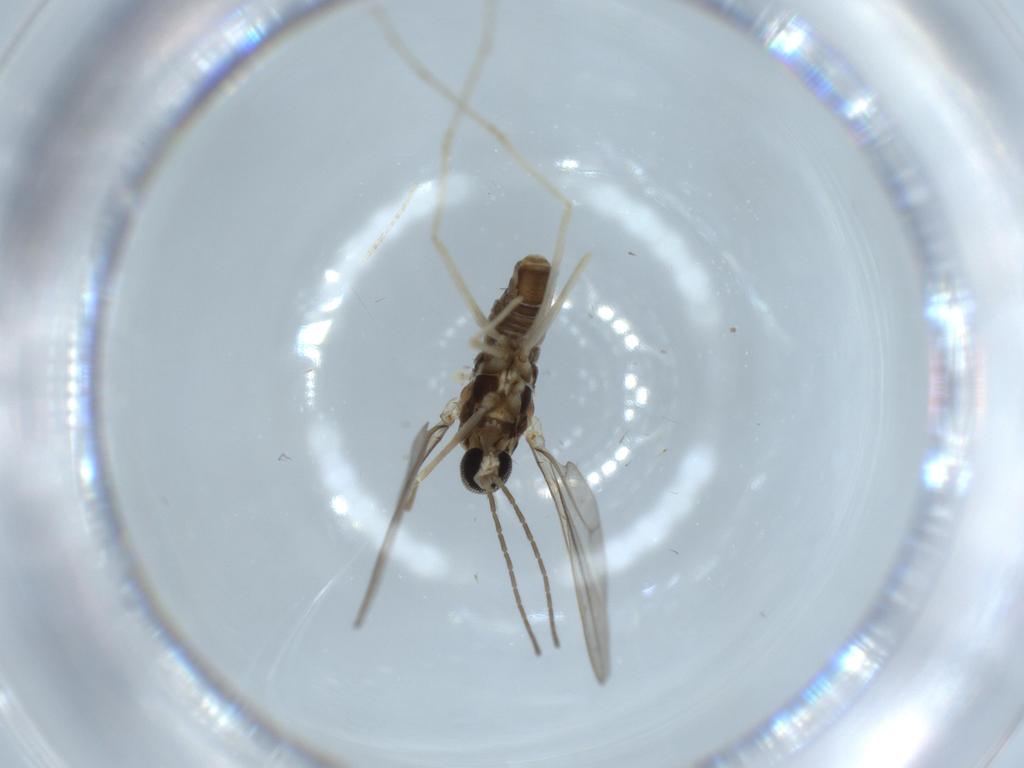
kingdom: Animalia
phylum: Arthropoda
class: Insecta
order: Diptera
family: Cecidomyiidae
